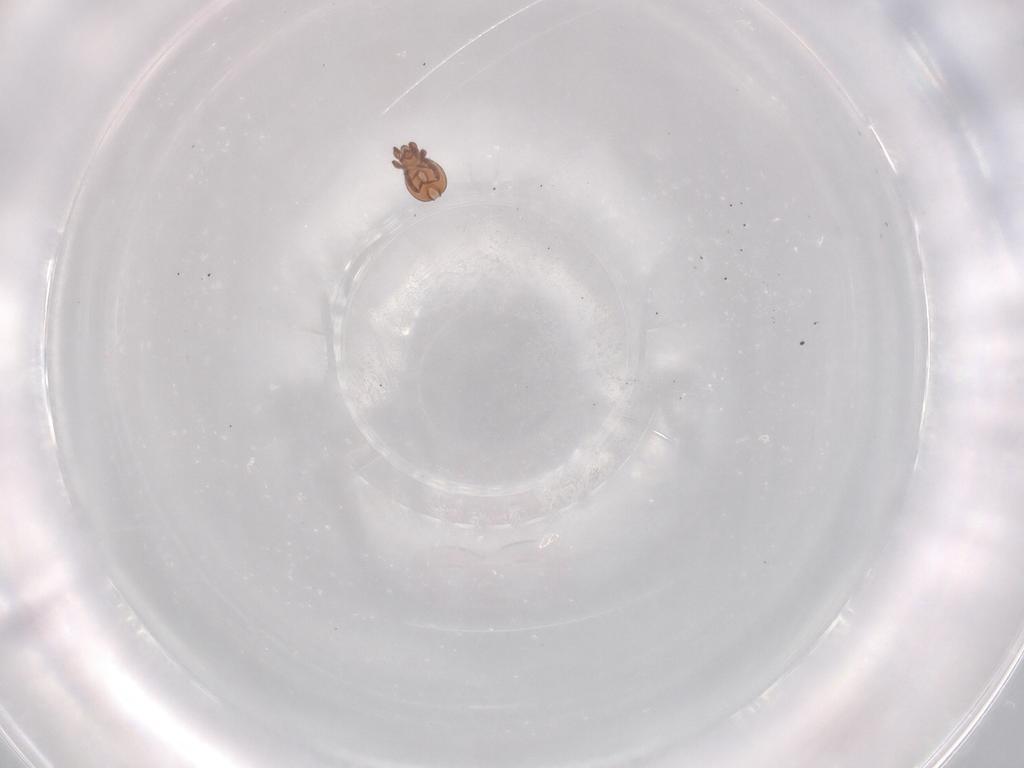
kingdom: Animalia
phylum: Arthropoda
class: Arachnida
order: Sarcoptiformes
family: Eremaeidae
